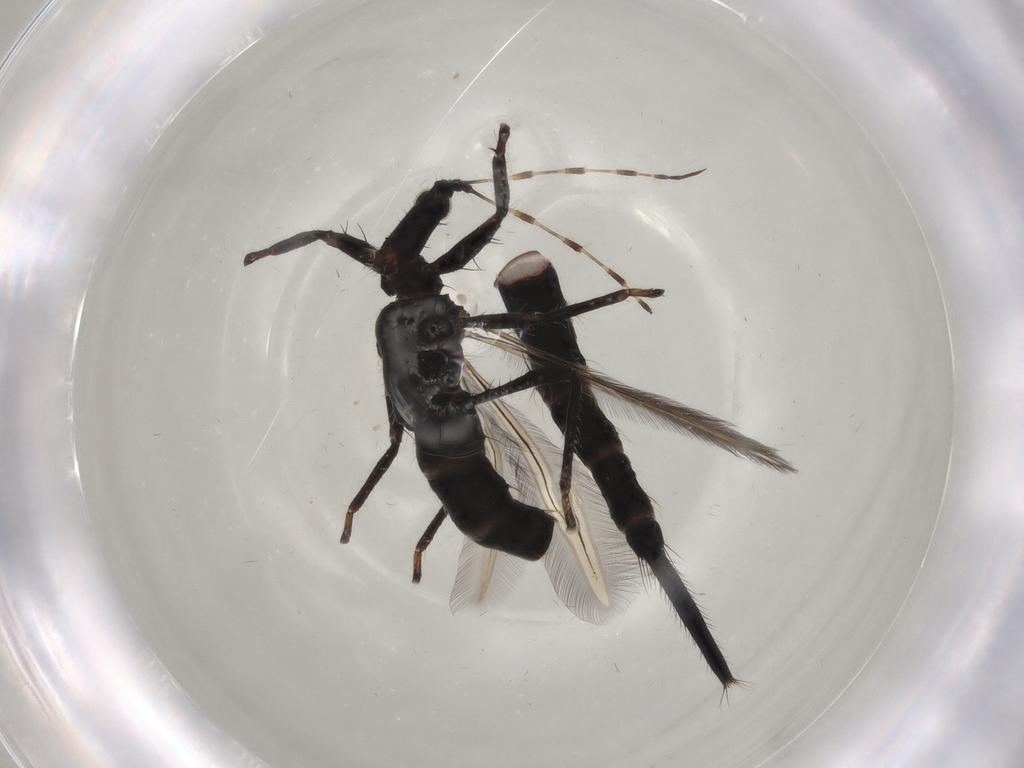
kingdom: Animalia
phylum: Arthropoda
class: Insecta
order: Thysanoptera
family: Phlaeothripidae
